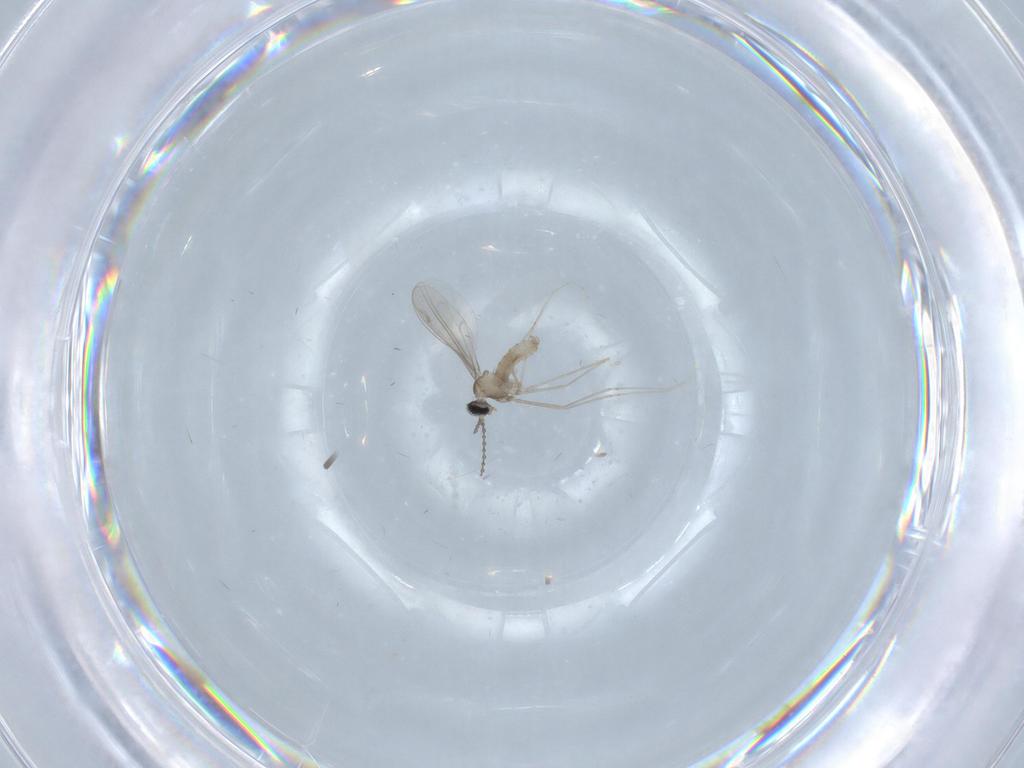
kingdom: Animalia
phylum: Arthropoda
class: Insecta
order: Diptera
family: Cecidomyiidae
